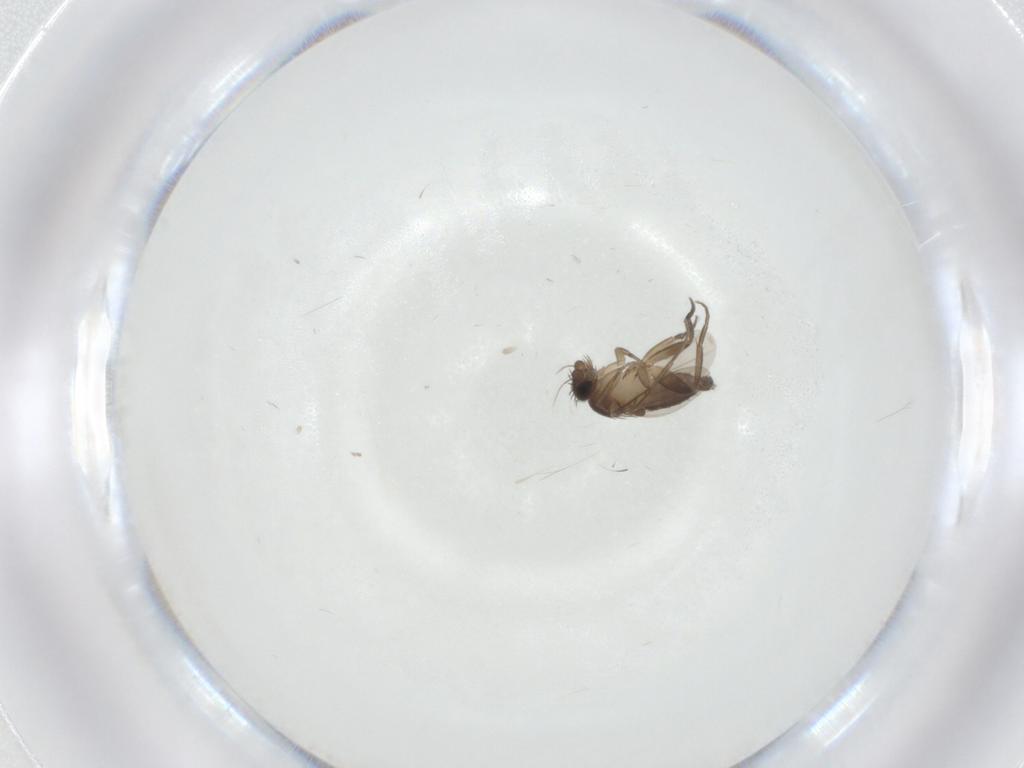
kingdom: Animalia
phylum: Arthropoda
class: Insecta
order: Diptera
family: Phoridae
